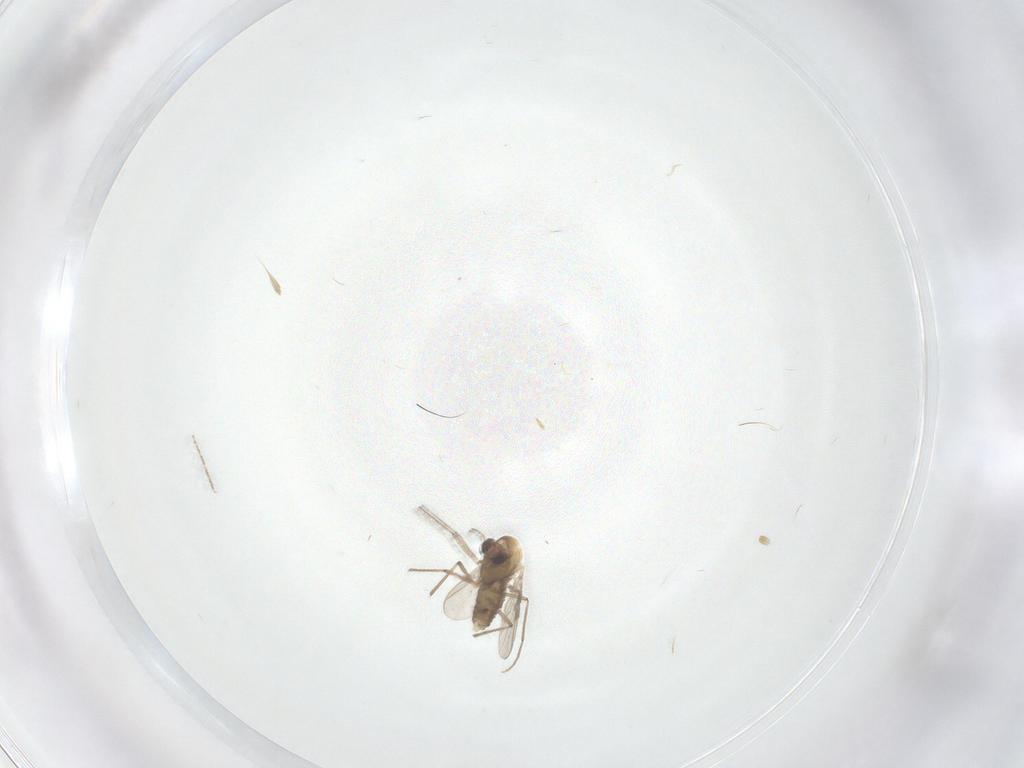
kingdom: Animalia
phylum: Arthropoda
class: Insecta
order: Diptera
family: Chironomidae
